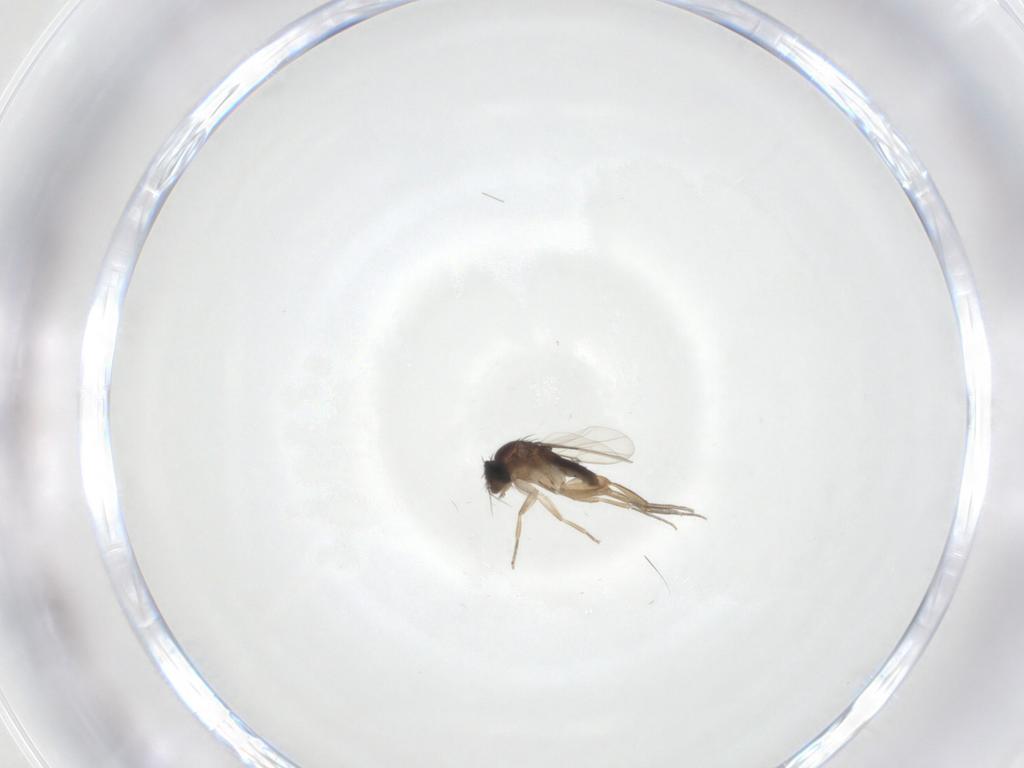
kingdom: Animalia
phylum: Arthropoda
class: Insecta
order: Diptera
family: Phoridae
